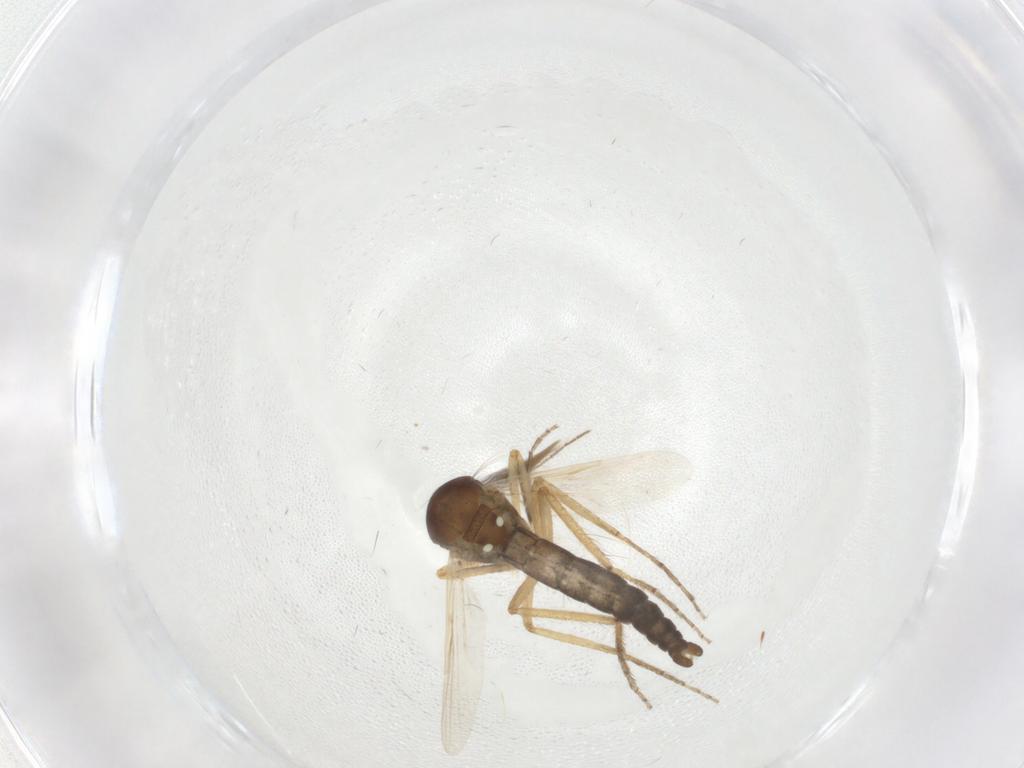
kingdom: Animalia
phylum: Arthropoda
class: Insecta
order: Diptera
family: Ceratopogonidae
